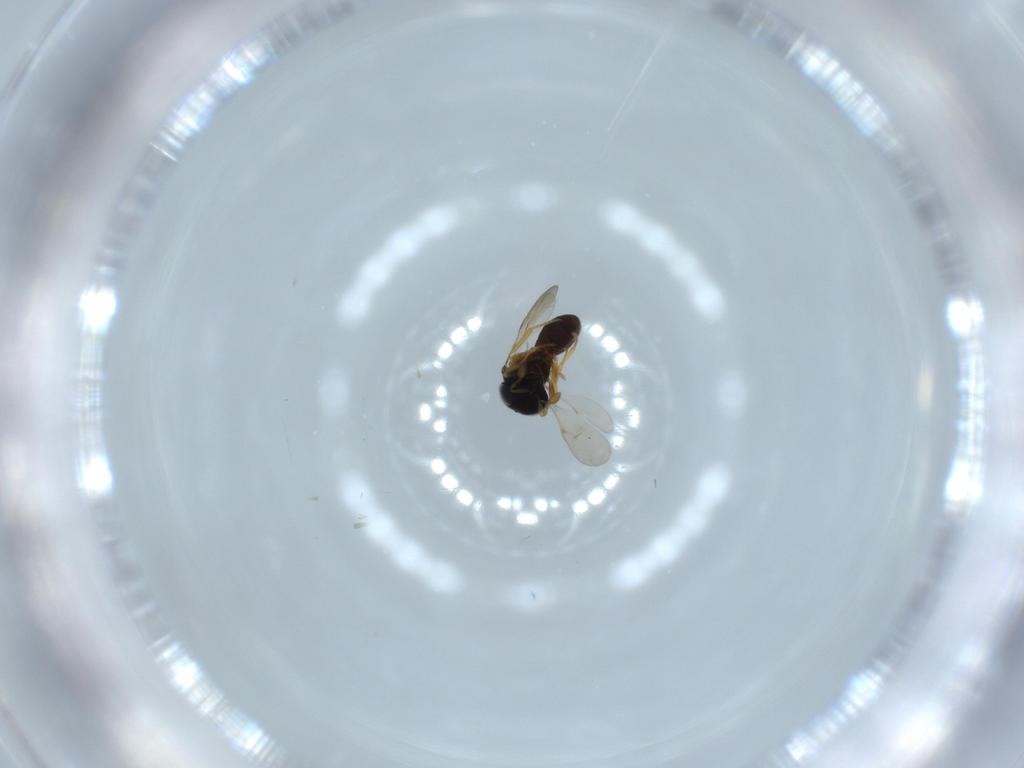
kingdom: Animalia
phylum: Arthropoda
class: Insecta
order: Hymenoptera
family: Scelionidae
